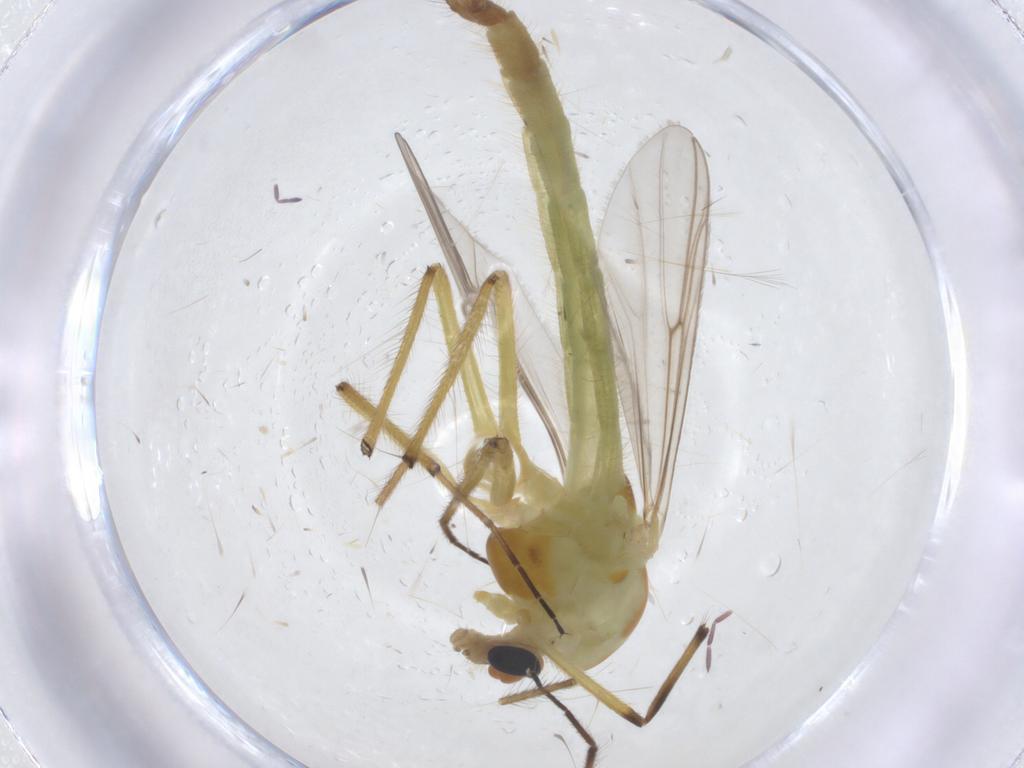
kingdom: Animalia
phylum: Arthropoda
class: Insecta
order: Diptera
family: Chironomidae
